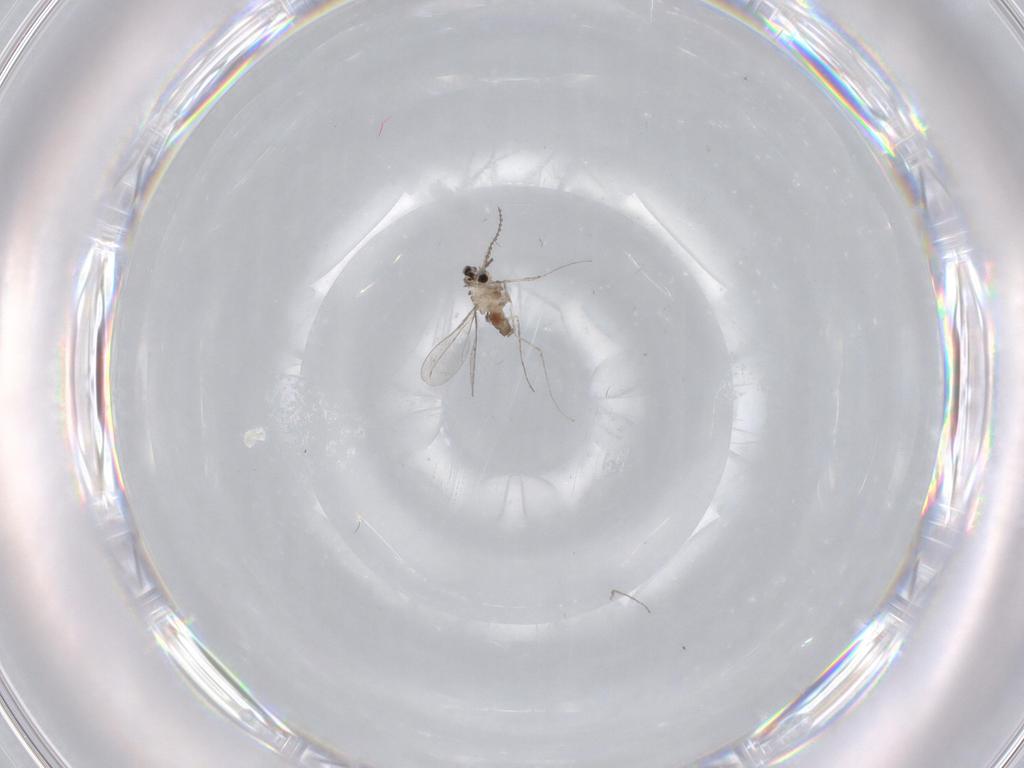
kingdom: Animalia
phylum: Arthropoda
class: Insecta
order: Diptera
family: Cecidomyiidae
